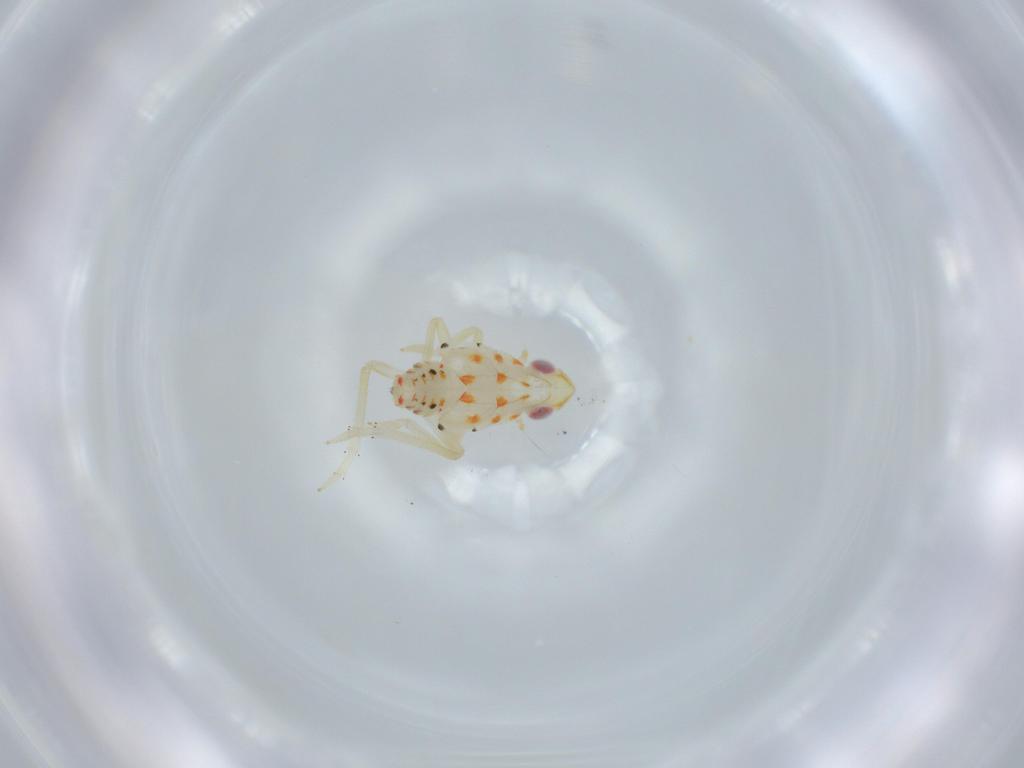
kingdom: Animalia
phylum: Arthropoda
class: Insecta
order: Hemiptera
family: Tropiduchidae
